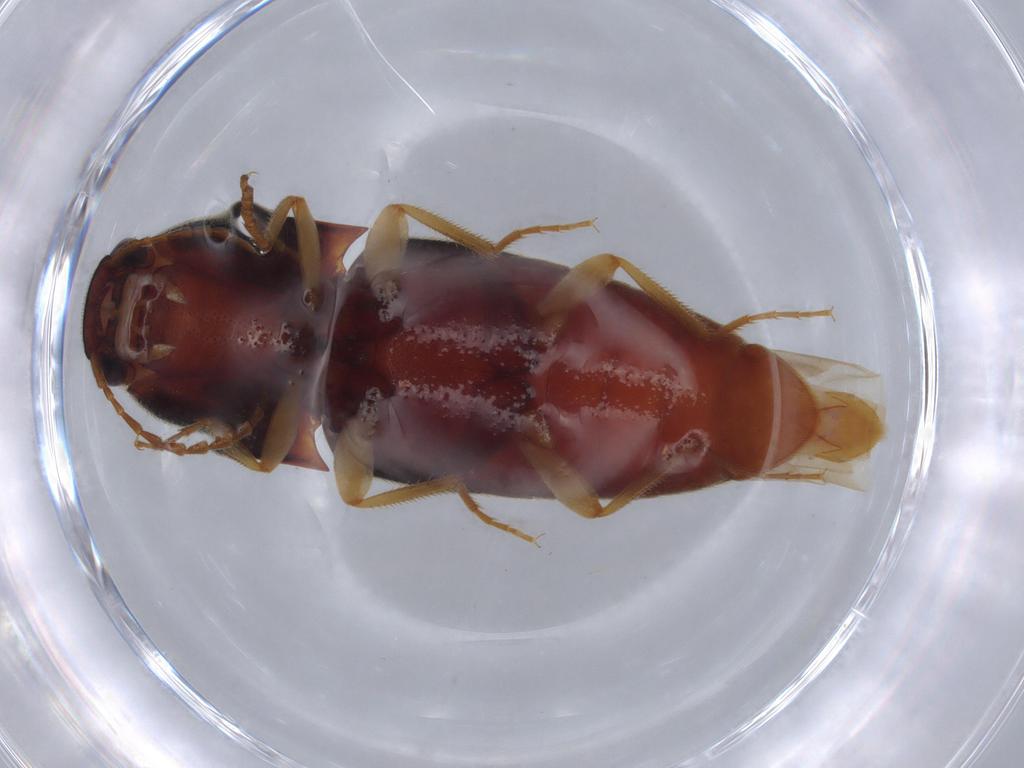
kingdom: Animalia
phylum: Arthropoda
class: Insecta
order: Coleoptera
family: Elateridae
